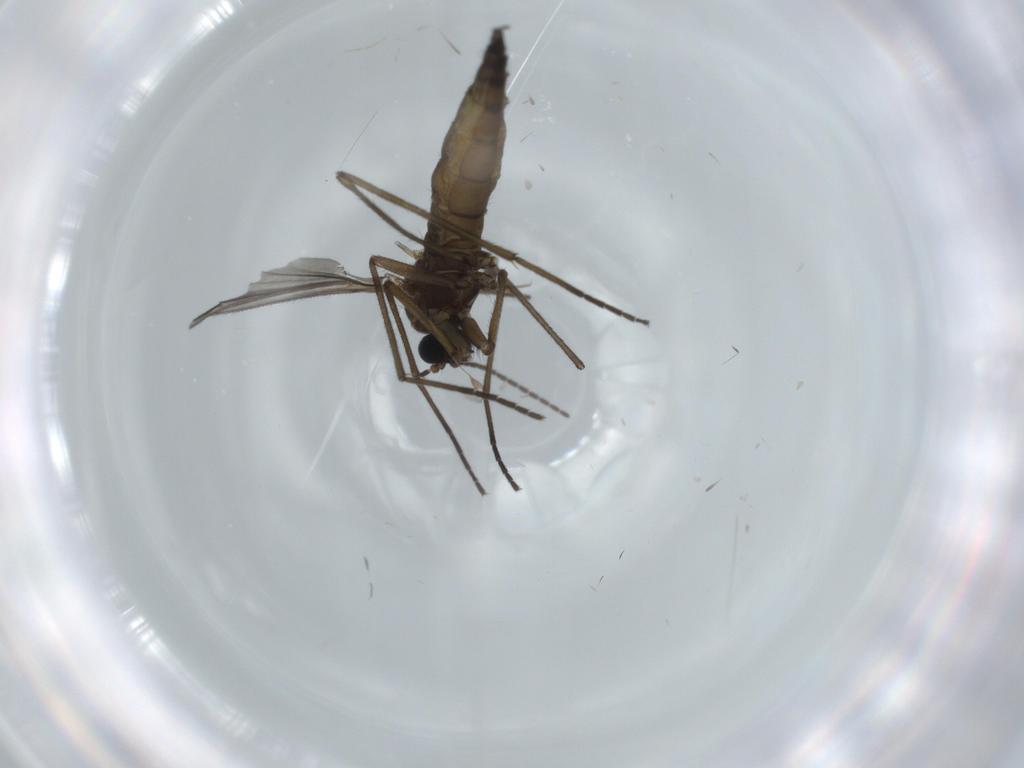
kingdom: Animalia
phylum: Arthropoda
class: Insecta
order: Diptera
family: Sciaridae
